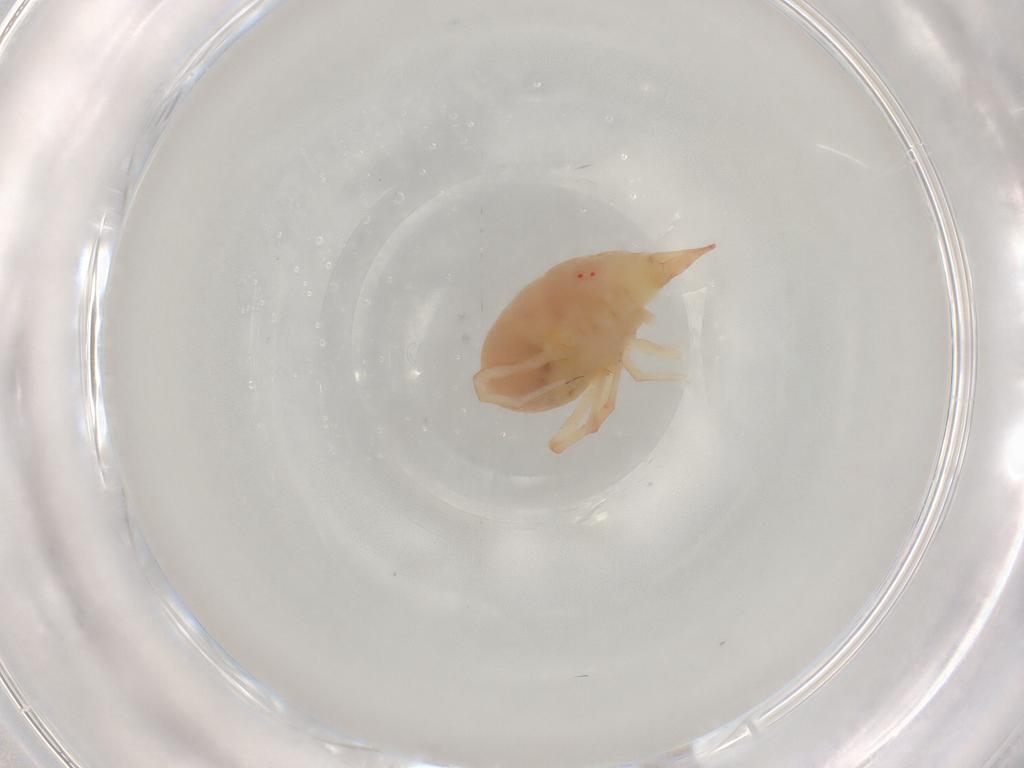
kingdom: Animalia
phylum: Arthropoda
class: Arachnida
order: Trombidiformes
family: Bdellidae
